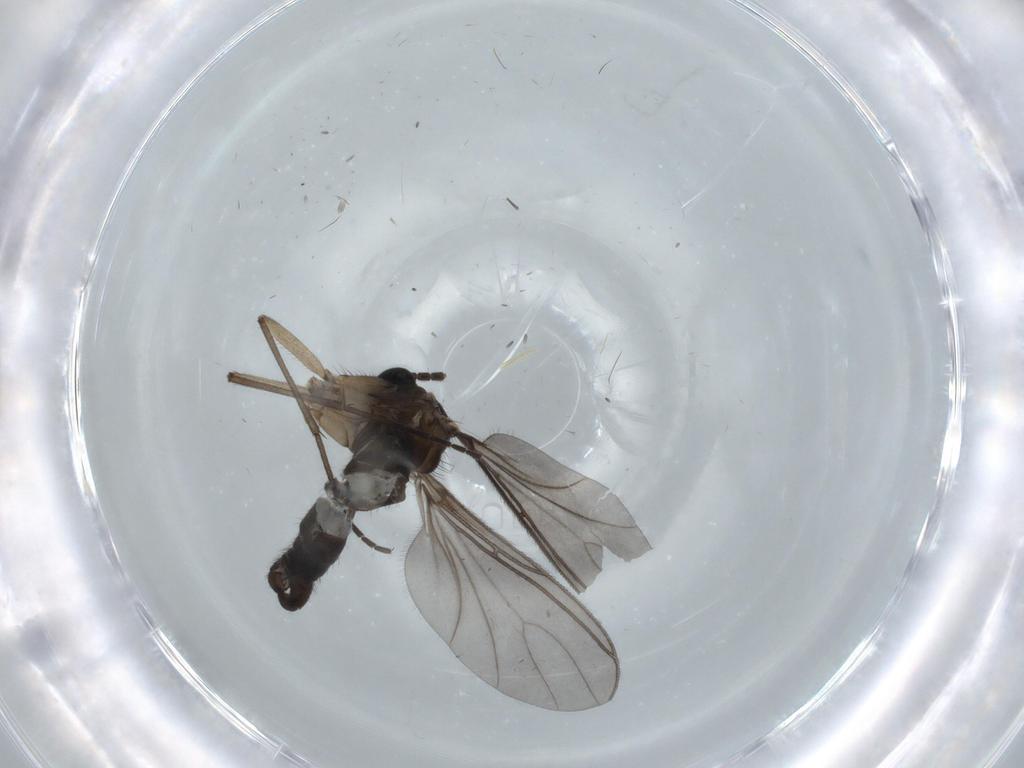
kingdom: Animalia
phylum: Arthropoda
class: Insecta
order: Diptera
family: Sciaridae
